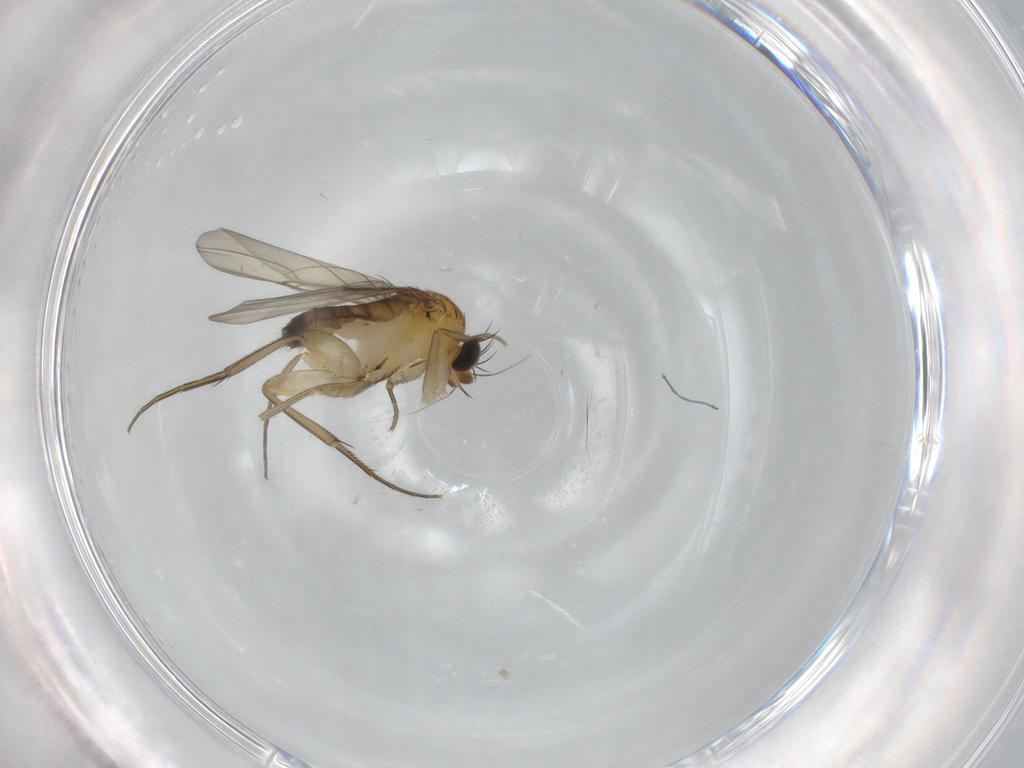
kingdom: Animalia
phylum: Arthropoda
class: Insecta
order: Diptera
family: Phoridae
